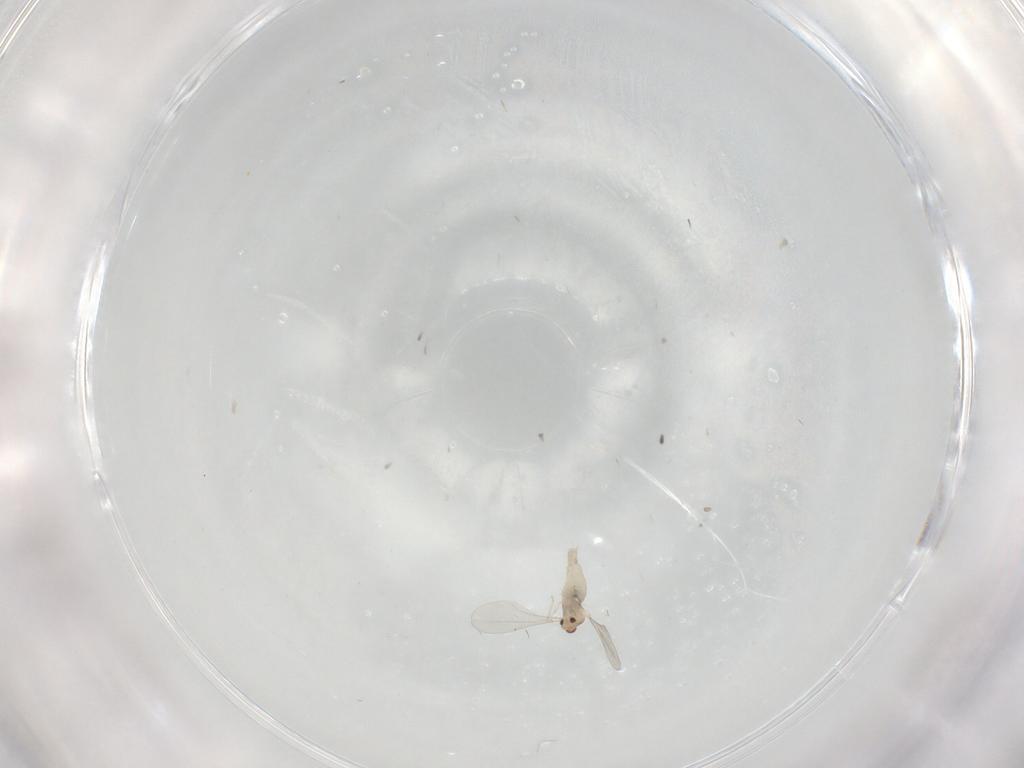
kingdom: Animalia
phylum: Arthropoda
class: Insecta
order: Diptera
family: Cecidomyiidae
